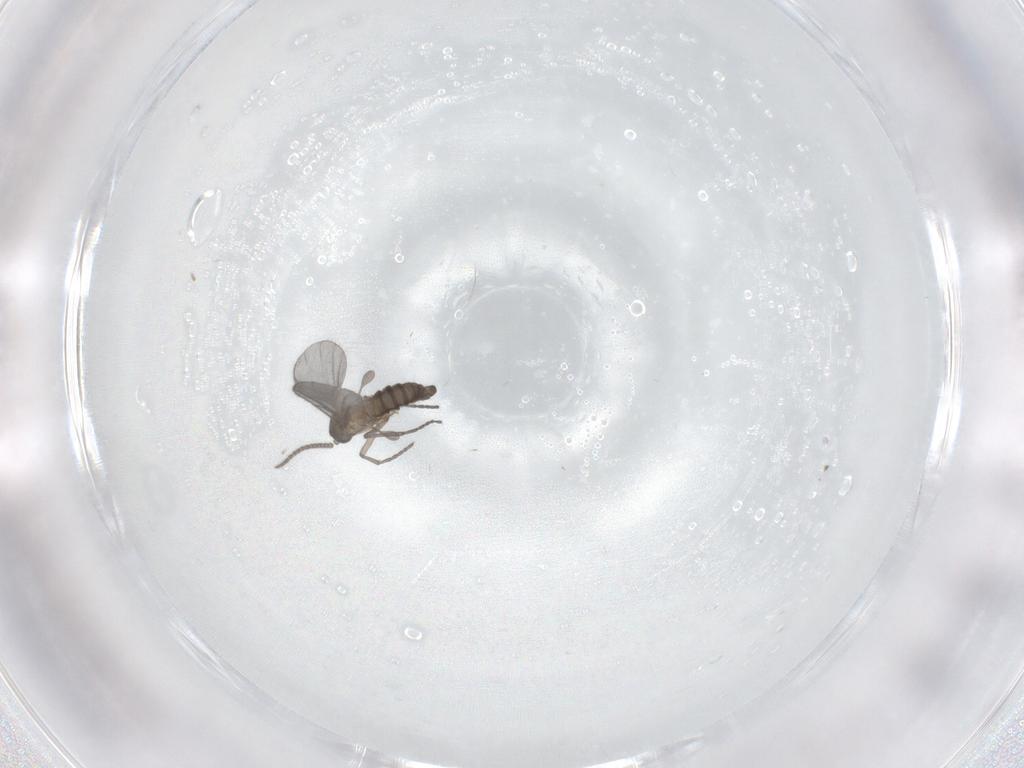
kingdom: Animalia
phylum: Arthropoda
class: Insecta
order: Diptera
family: Sciaridae
